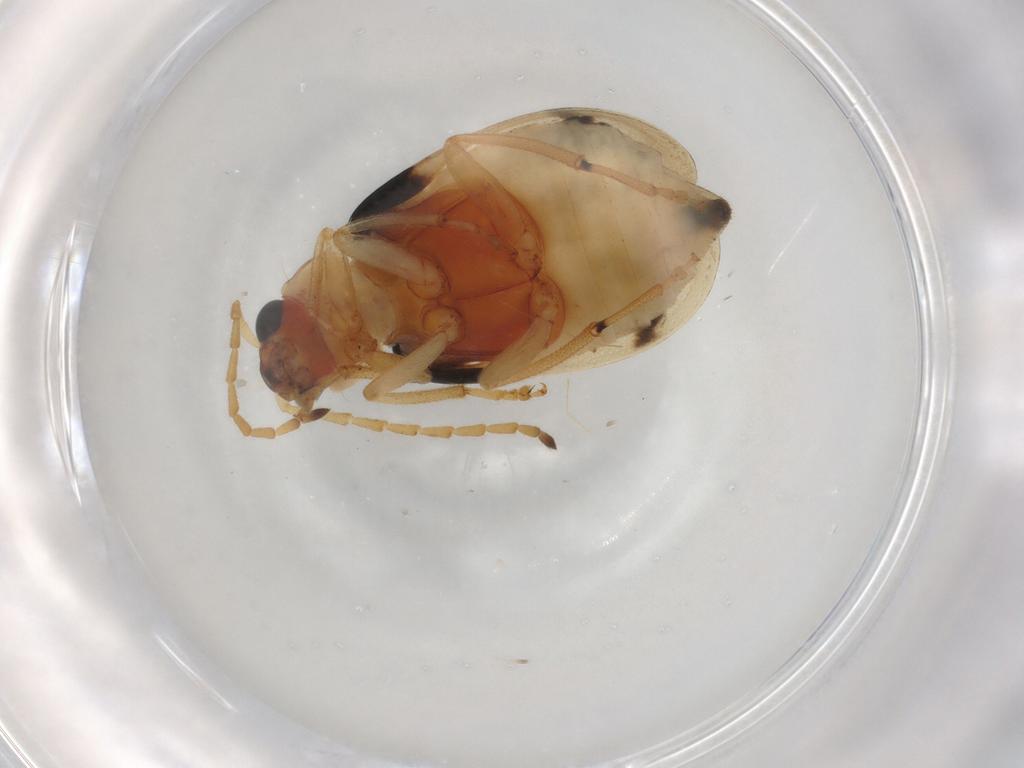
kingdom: Animalia
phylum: Arthropoda
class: Insecta
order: Coleoptera
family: Chrysomelidae
